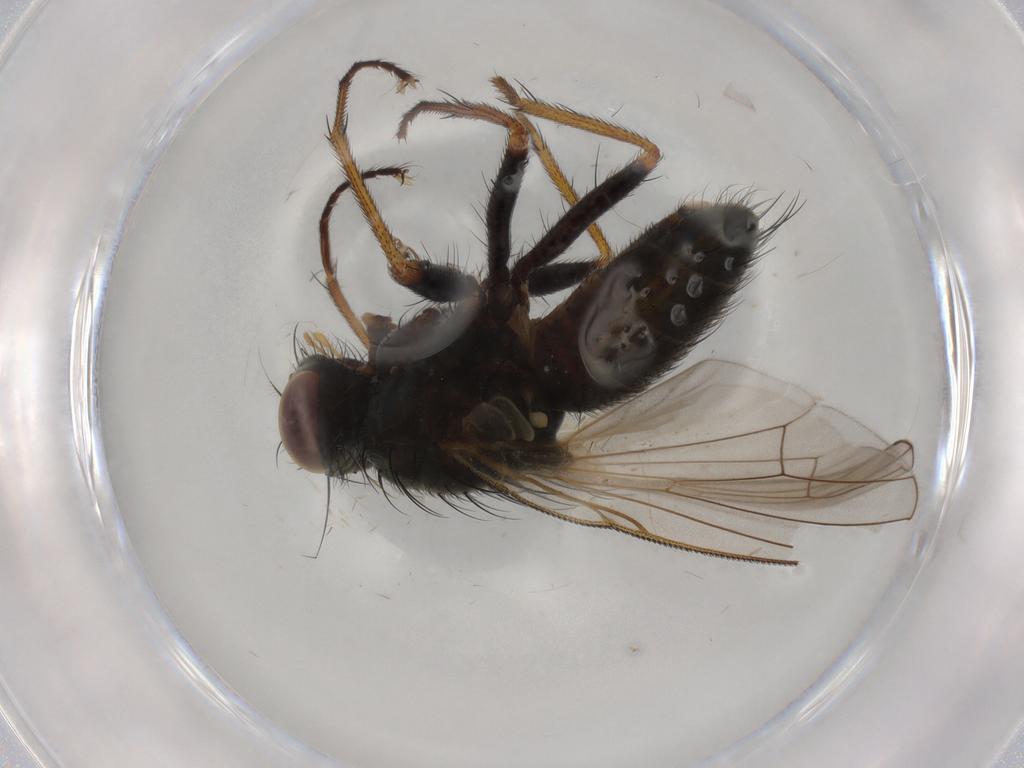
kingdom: Animalia
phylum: Arthropoda
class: Insecta
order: Diptera
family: Muscidae
